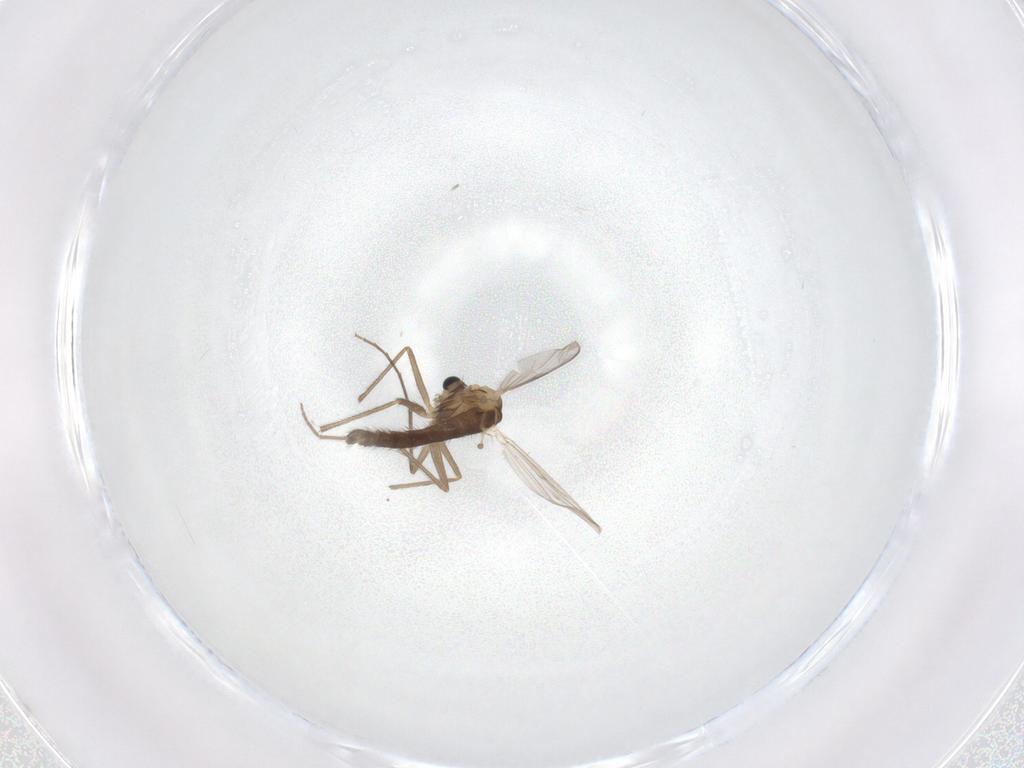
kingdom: Animalia
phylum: Arthropoda
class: Insecta
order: Diptera
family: Chironomidae
